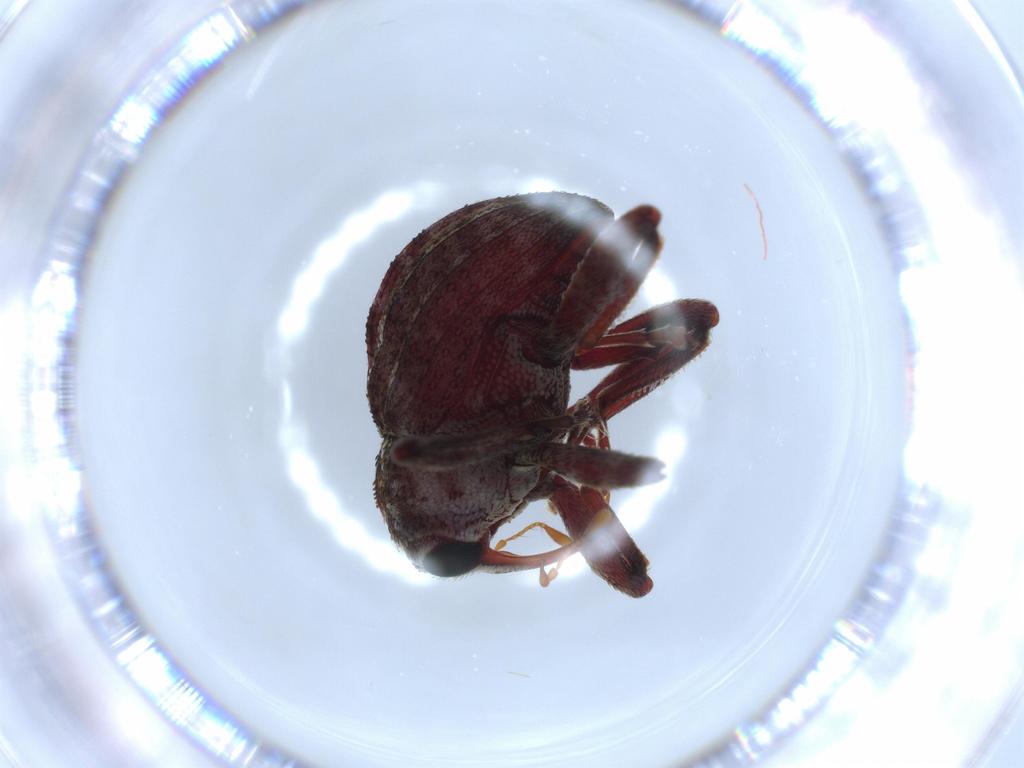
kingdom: Animalia
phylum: Arthropoda
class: Insecta
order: Coleoptera
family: Curculionidae
